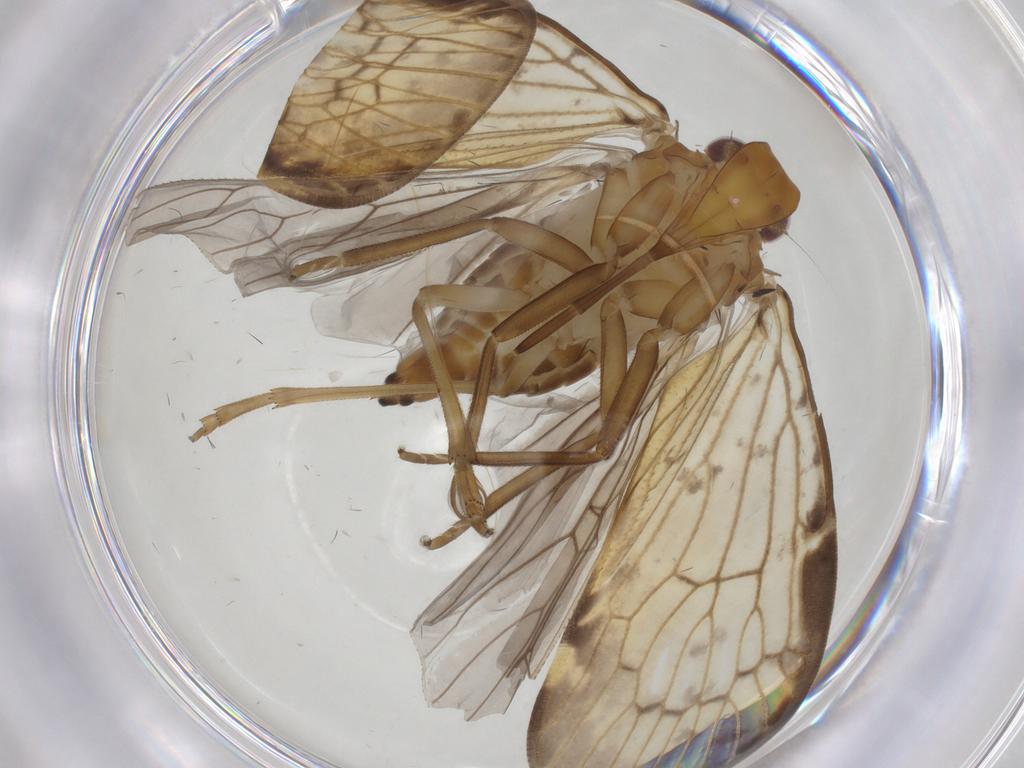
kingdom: Animalia
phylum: Arthropoda
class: Insecta
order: Hemiptera
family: Cixiidae
